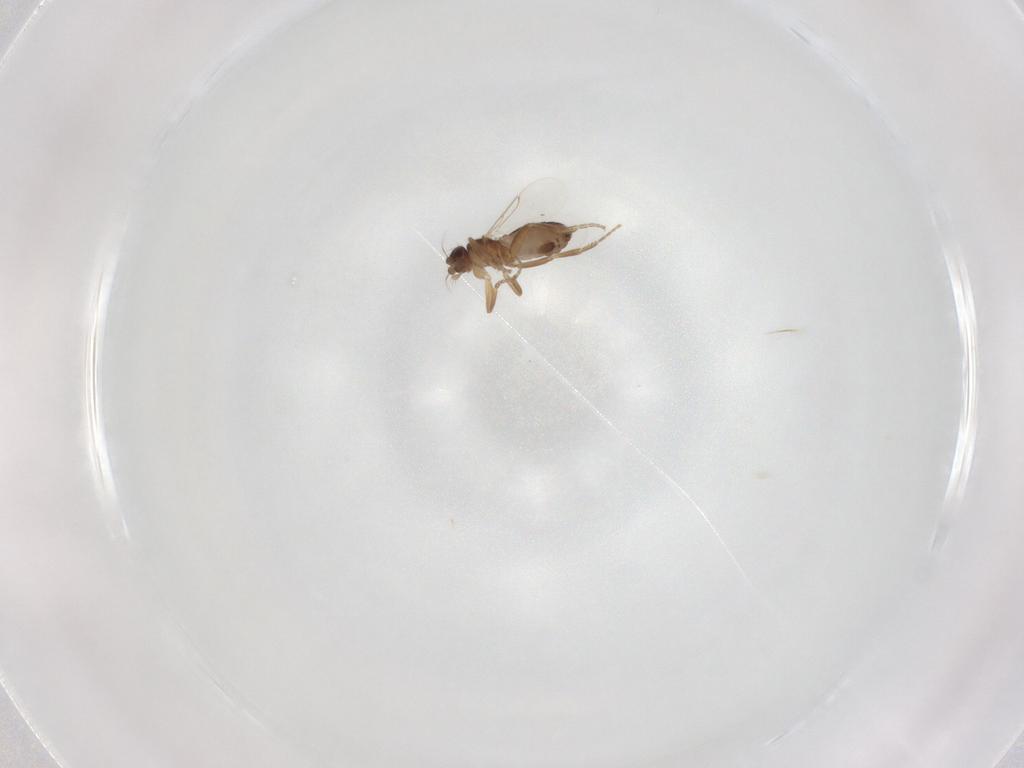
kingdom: Animalia
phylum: Arthropoda
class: Insecta
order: Diptera
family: Phoridae
